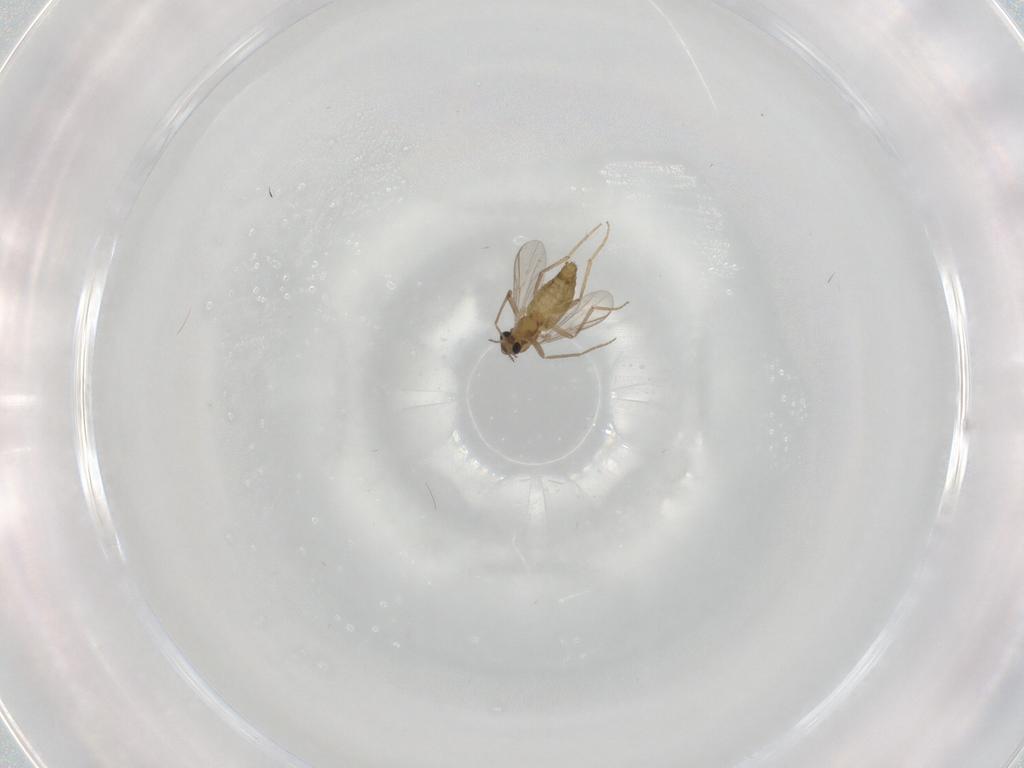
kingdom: Animalia
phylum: Arthropoda
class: Insecta
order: Diptera
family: Chironomidae
